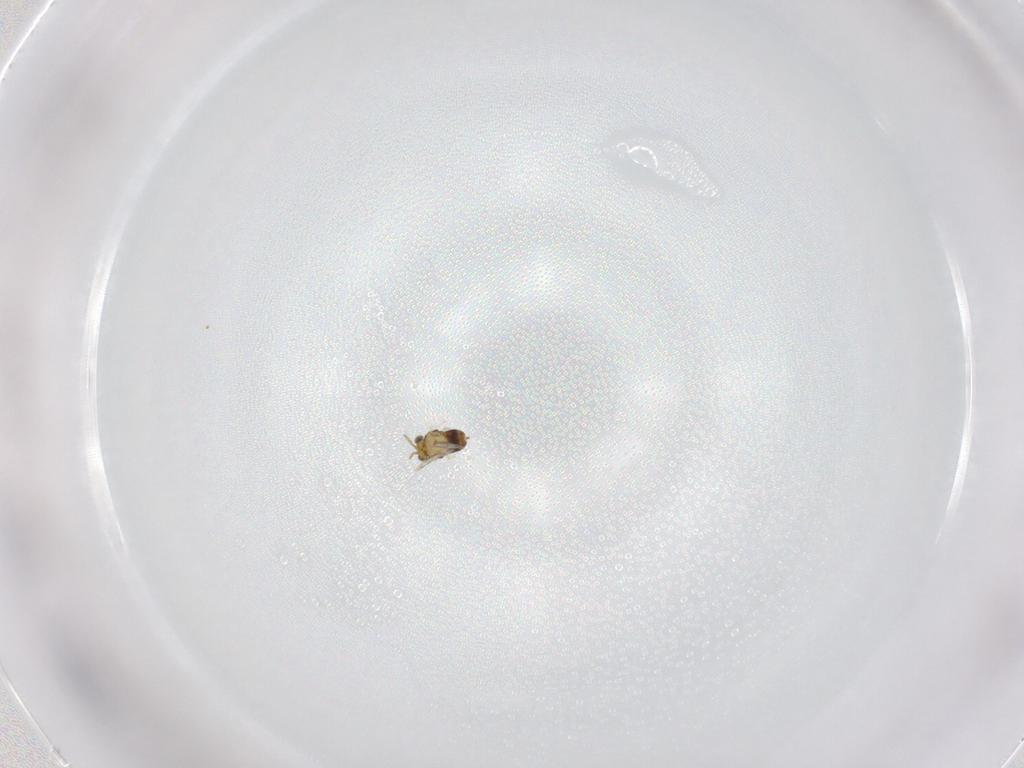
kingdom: Animalia
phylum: Arthropoda
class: Insecta
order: Hymenoptera
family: Aphelinidae
